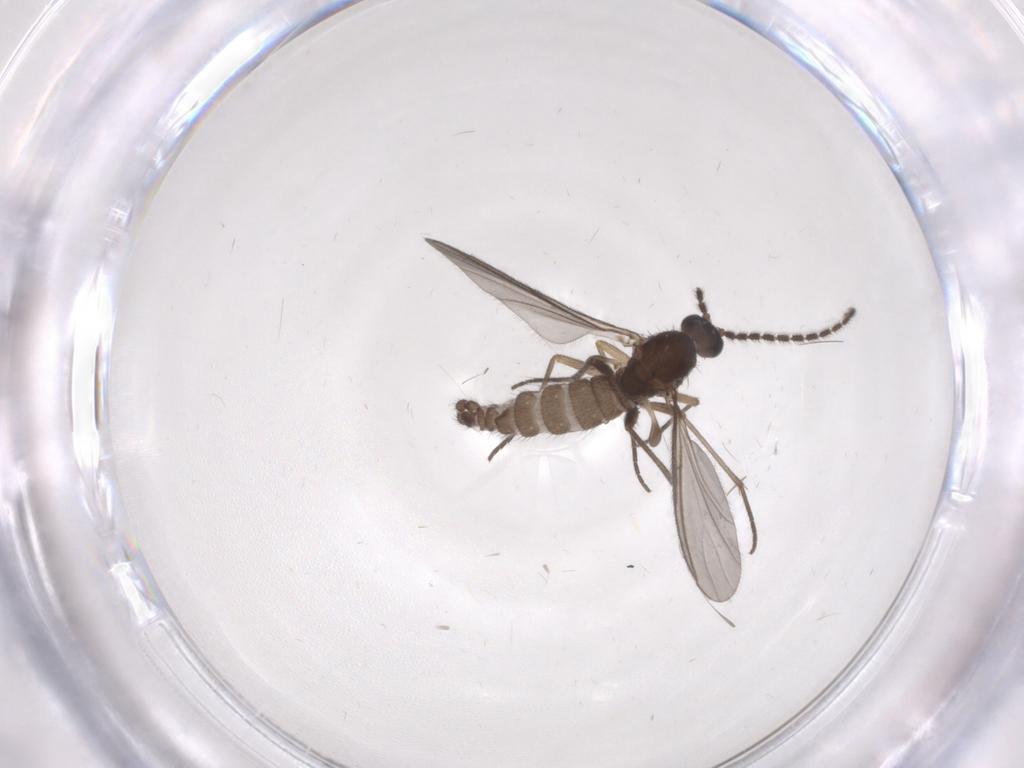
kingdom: Animalia
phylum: Arthropoda
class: Insecta
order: Diptera
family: Sciaridae
